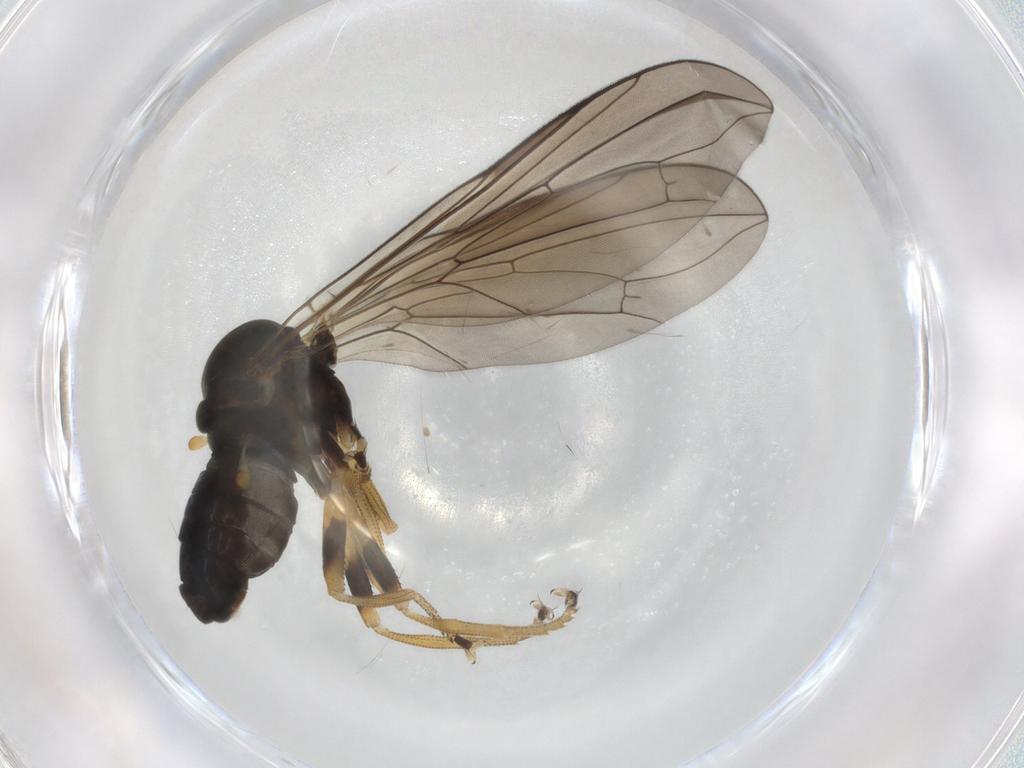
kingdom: Animalia
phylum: Arthropoda
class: Insecta
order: Diptera
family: Pipunculidae
